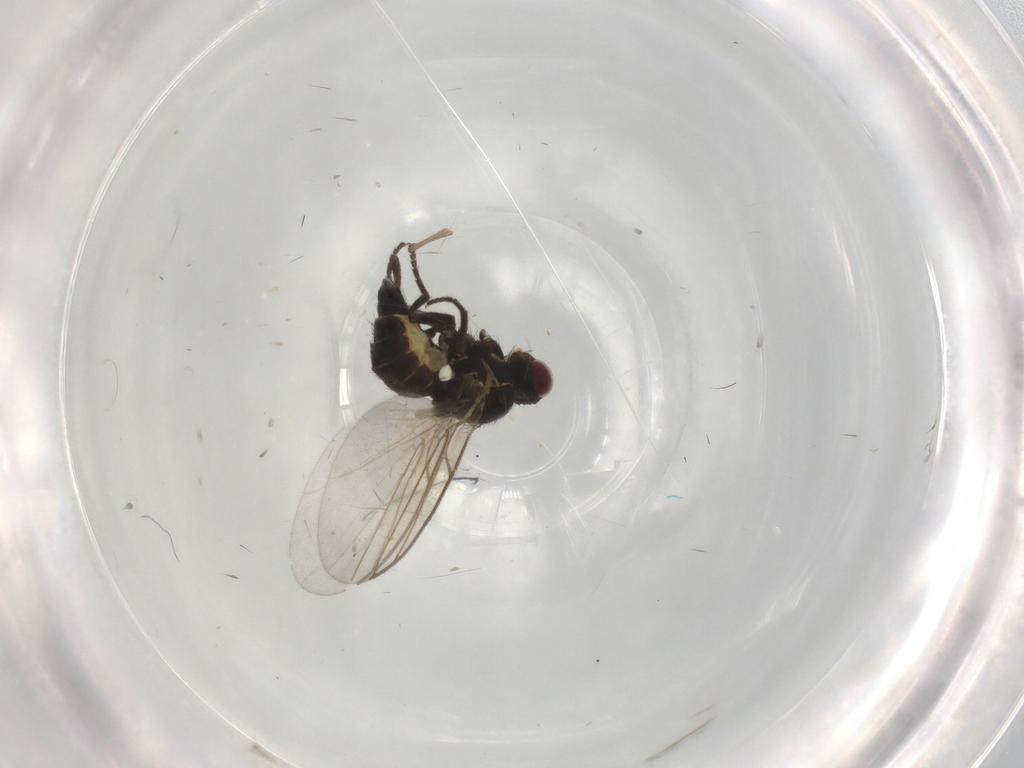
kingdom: Animalia
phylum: Arthropoda
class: Insecta
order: Diptera
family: Agromyzidae
